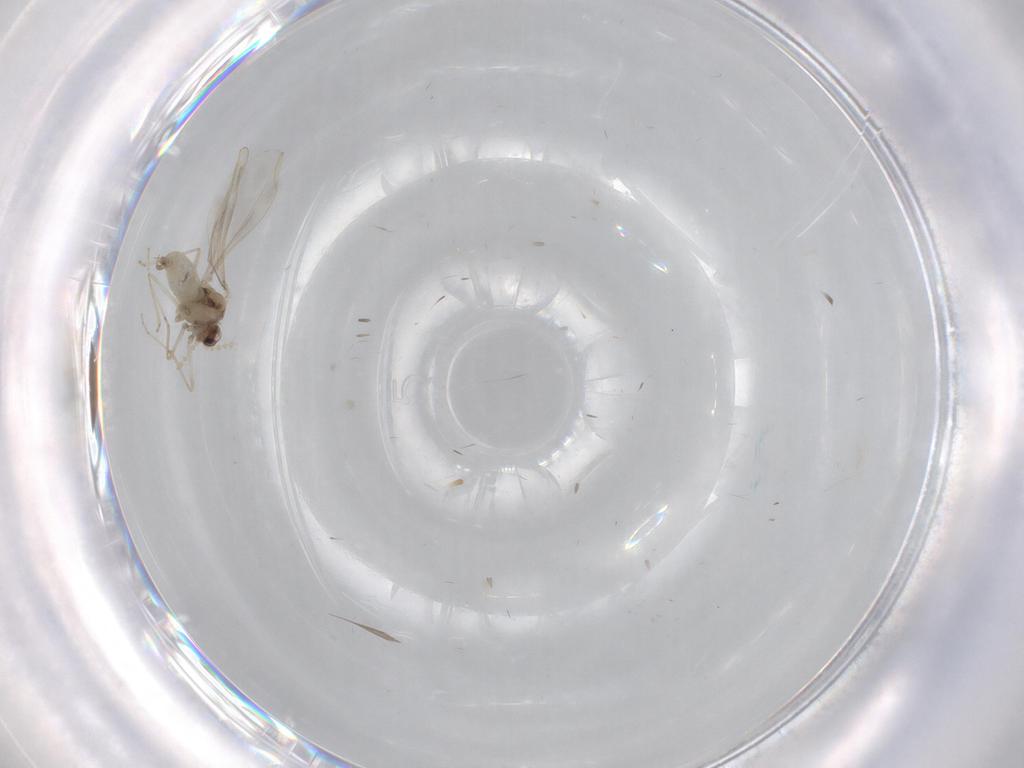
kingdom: Animalia
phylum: Arthropoda
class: Insecta
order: Diptera
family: Cecidomyiidae
